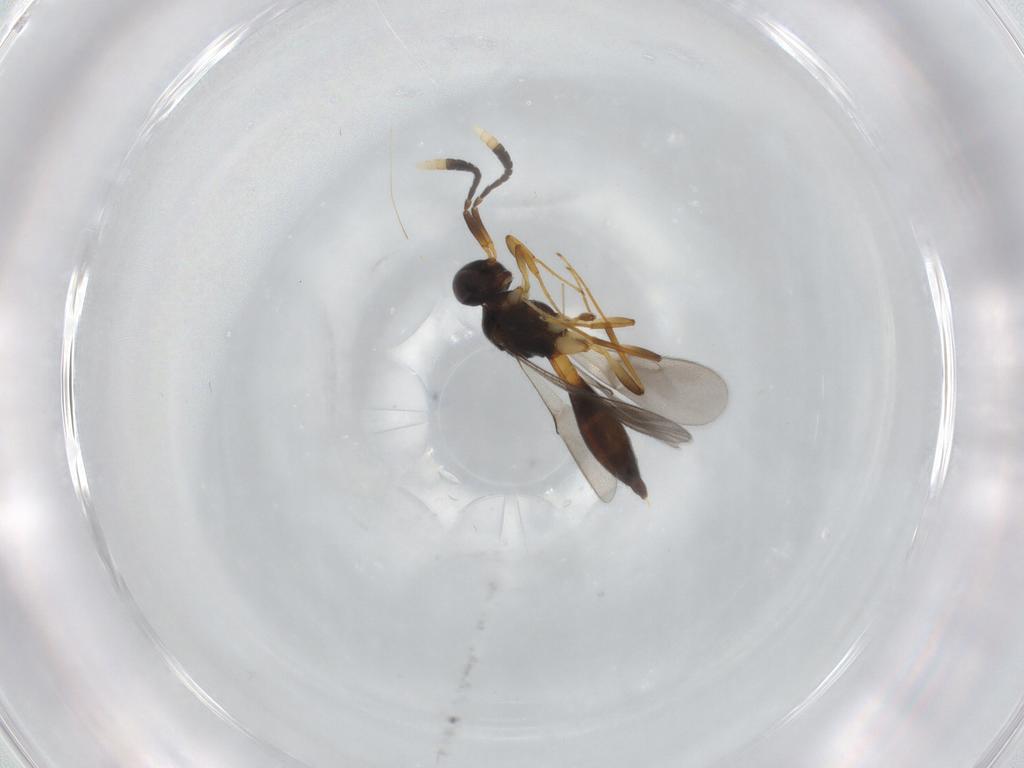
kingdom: Animalia
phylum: Arthropoda
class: Insecta
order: Hymenoptera
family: Scelionidae
